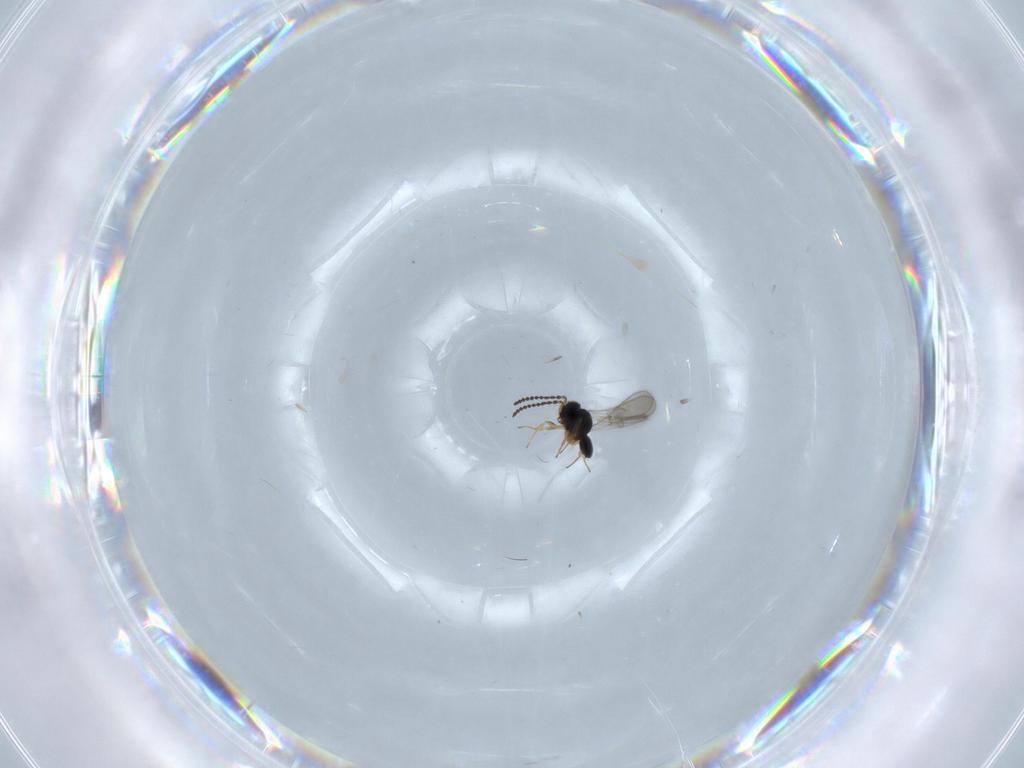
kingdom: Animalia
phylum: Arthropoda
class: Insecta
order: Hymenoptera
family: Scelionidae
